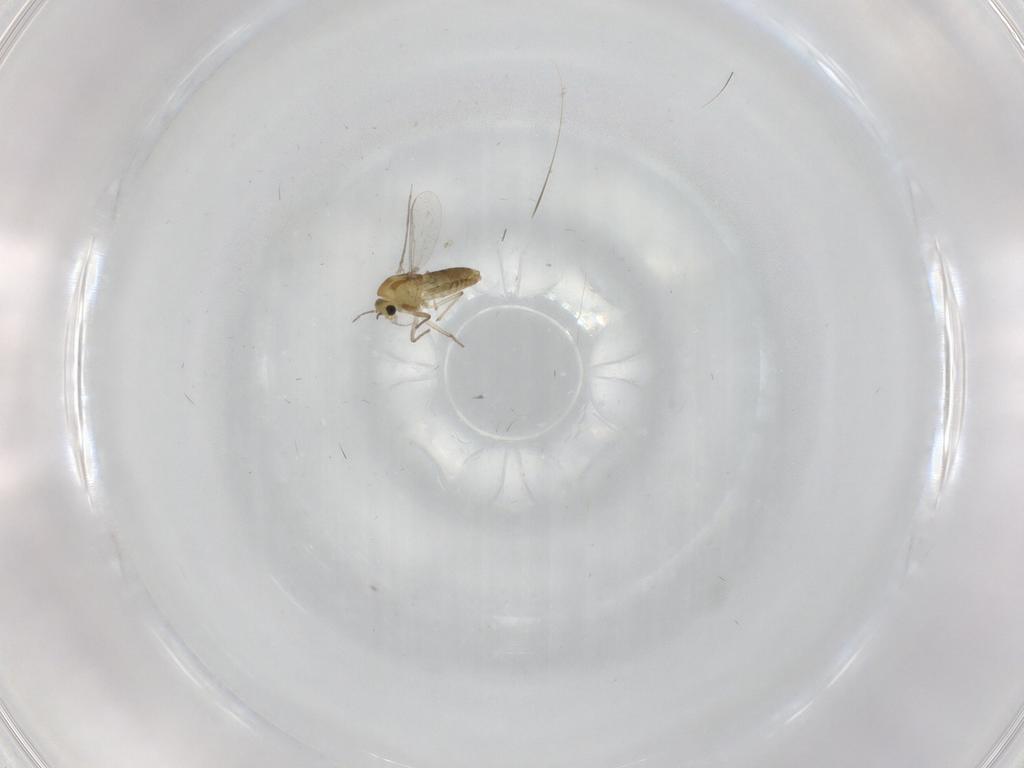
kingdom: Animalia
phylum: Arthropoda
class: Insecta
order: Diptera
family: Chironomidae
